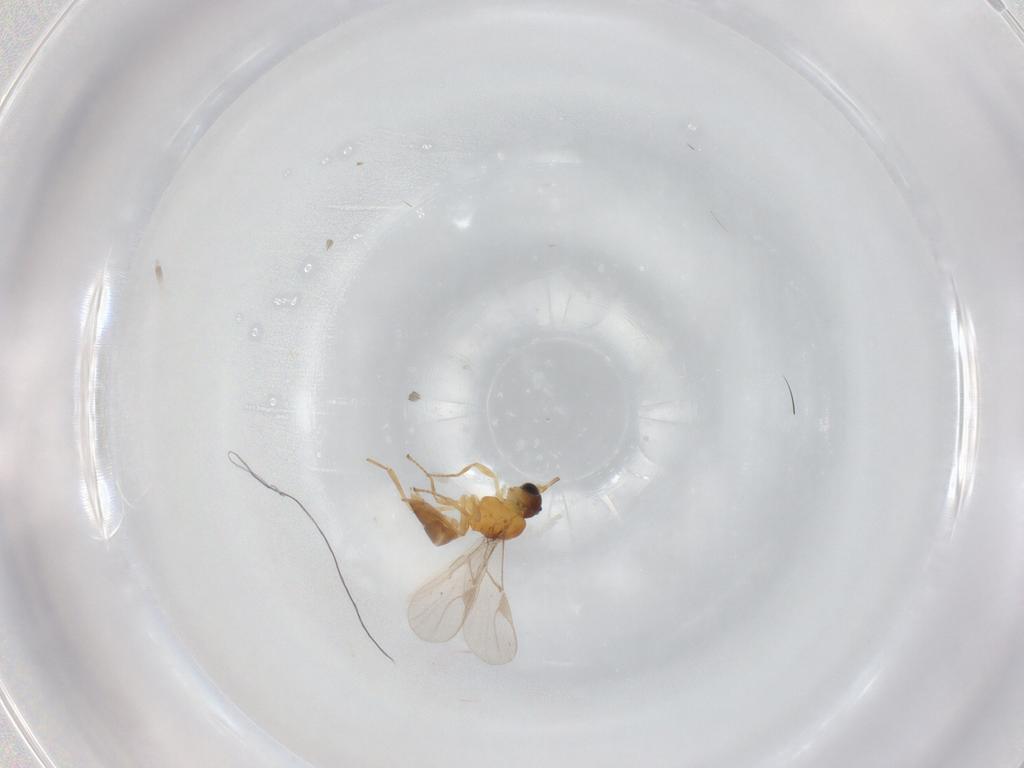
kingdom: Animalia
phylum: Arthropoda
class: Insecta
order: Hymenoptera
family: Braconidae
